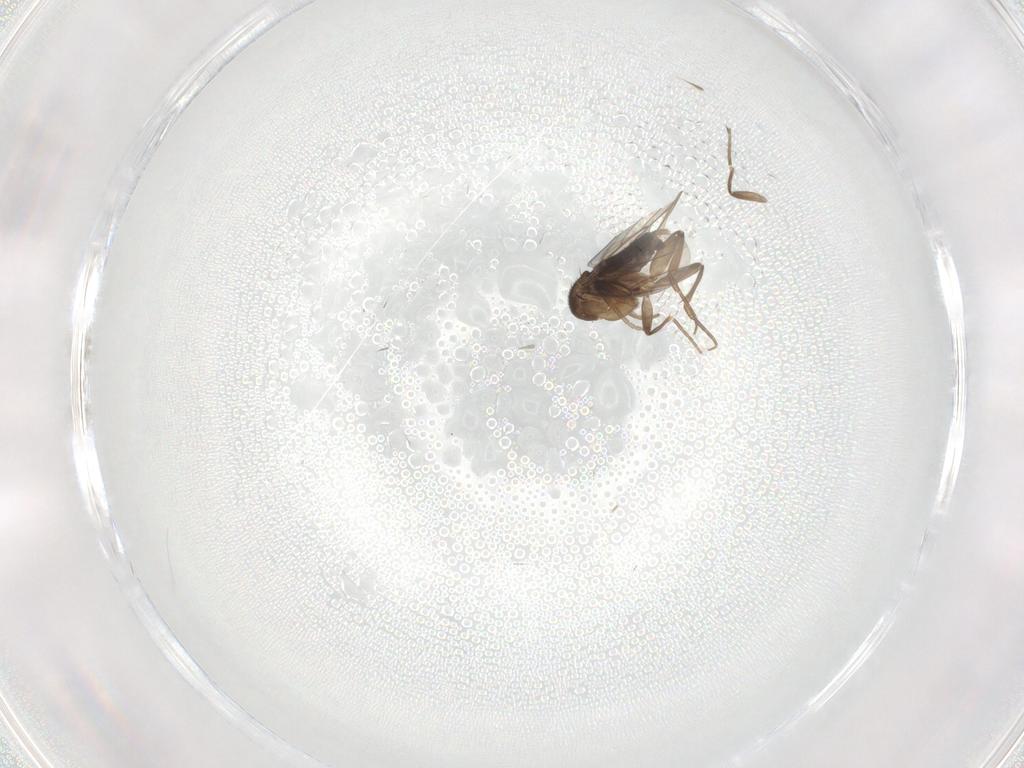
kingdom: Animalia
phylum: Arthropoda
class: Insecta
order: Diptera
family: Phoridae
